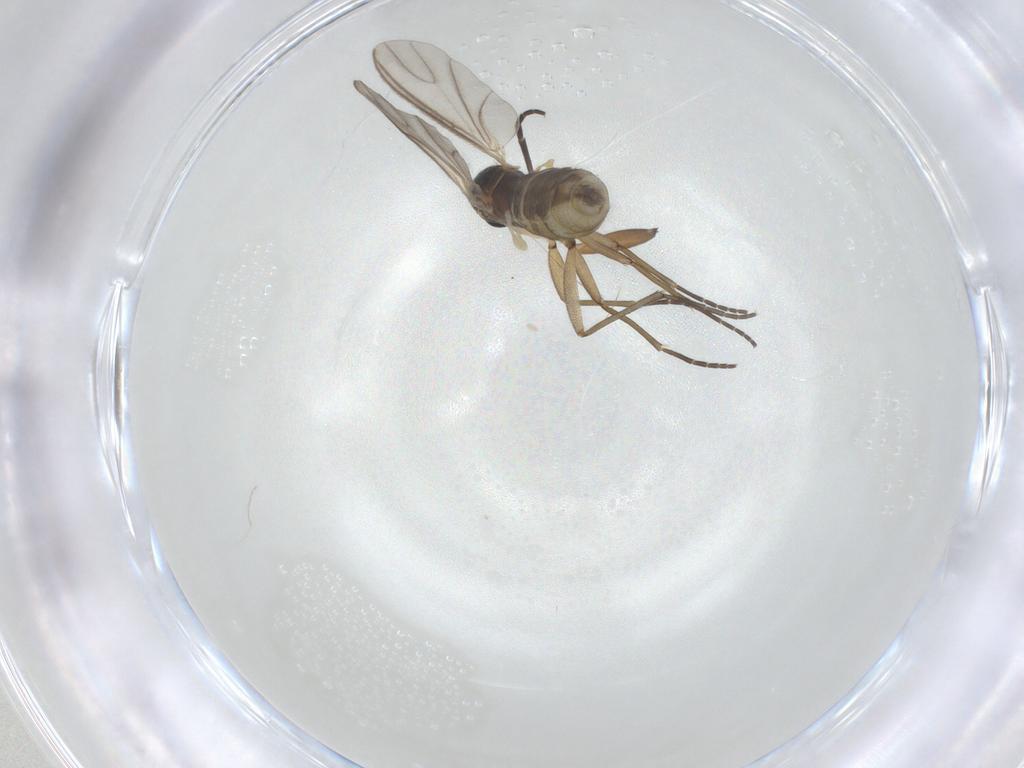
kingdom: Animalia
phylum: Arthropoda
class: Insecta
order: Diptera
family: Sciaridae
